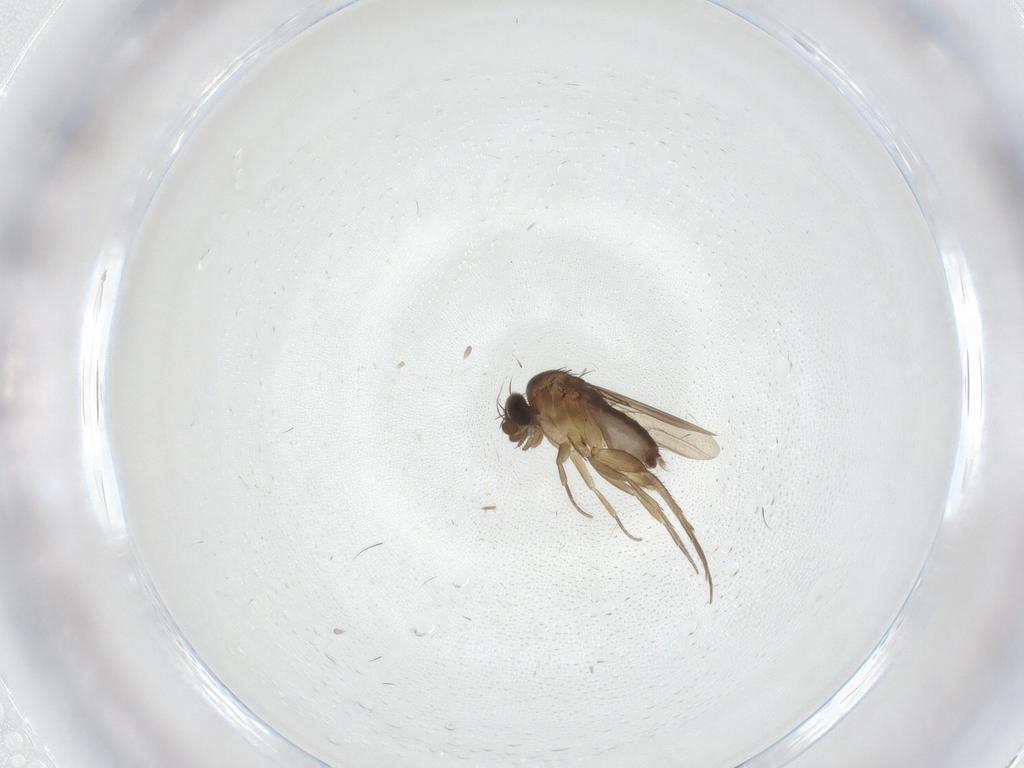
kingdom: Animalia
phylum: Arthropoda
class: Insecta
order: Diptera
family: Phoridae
